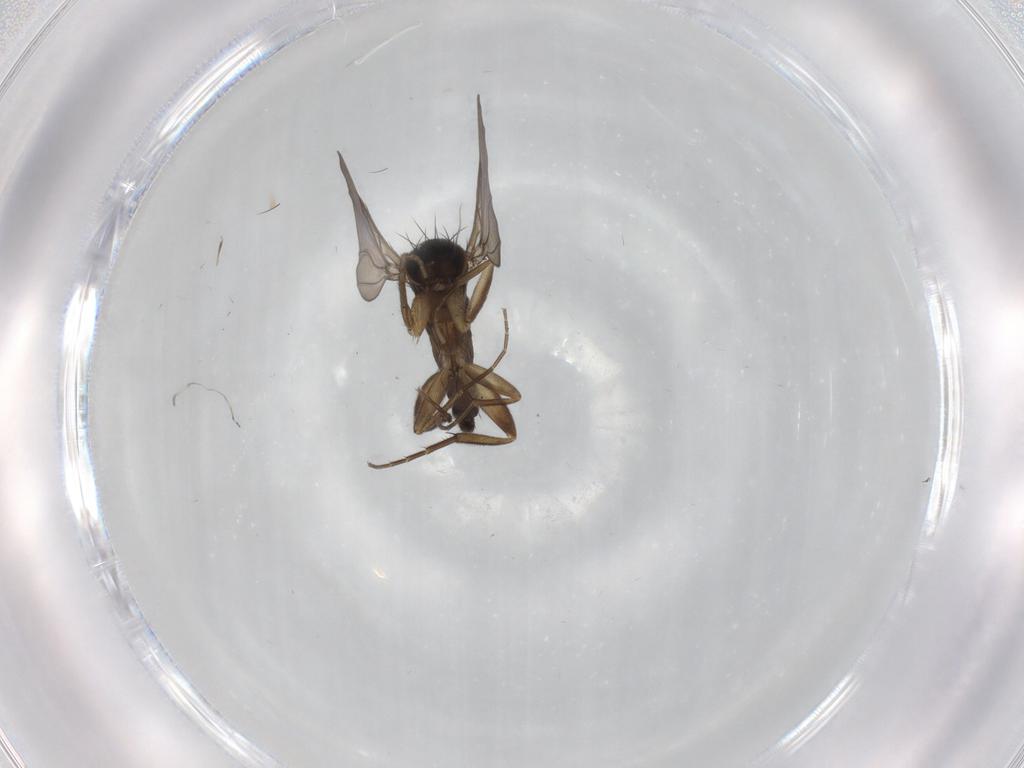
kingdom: Animalia
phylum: Arthropoda
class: Insecta
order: Diptera
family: Phoridae
